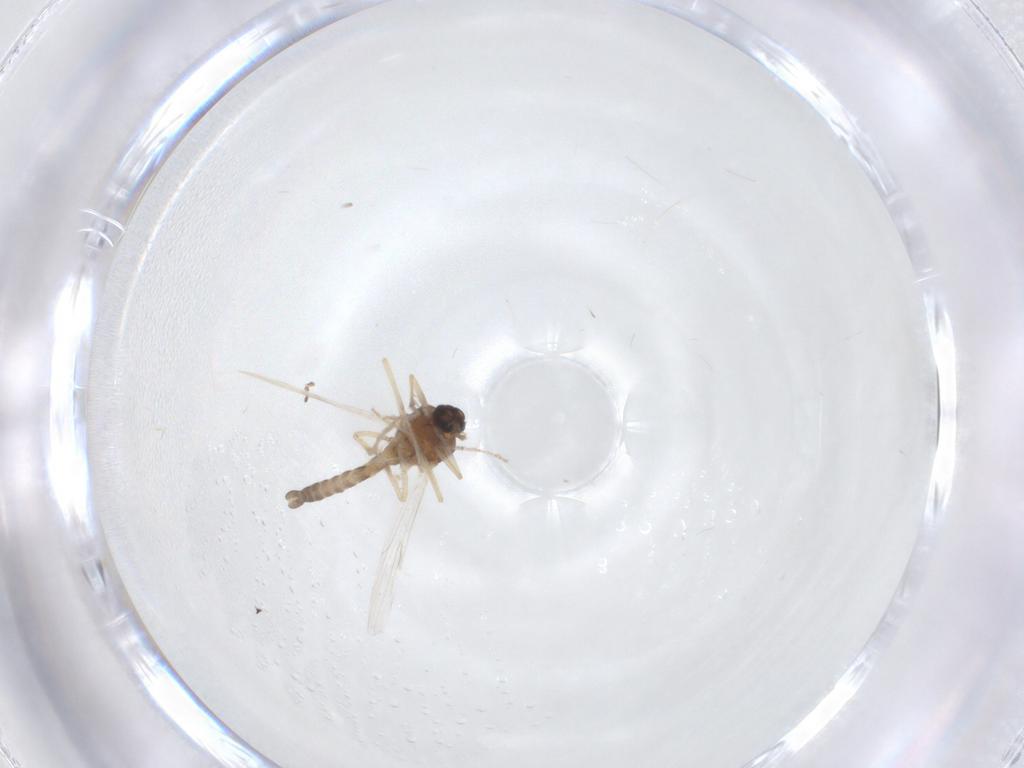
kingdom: Animalia
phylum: Arthropoda
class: Insecta
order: Diptera
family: Ceratopogonidae
